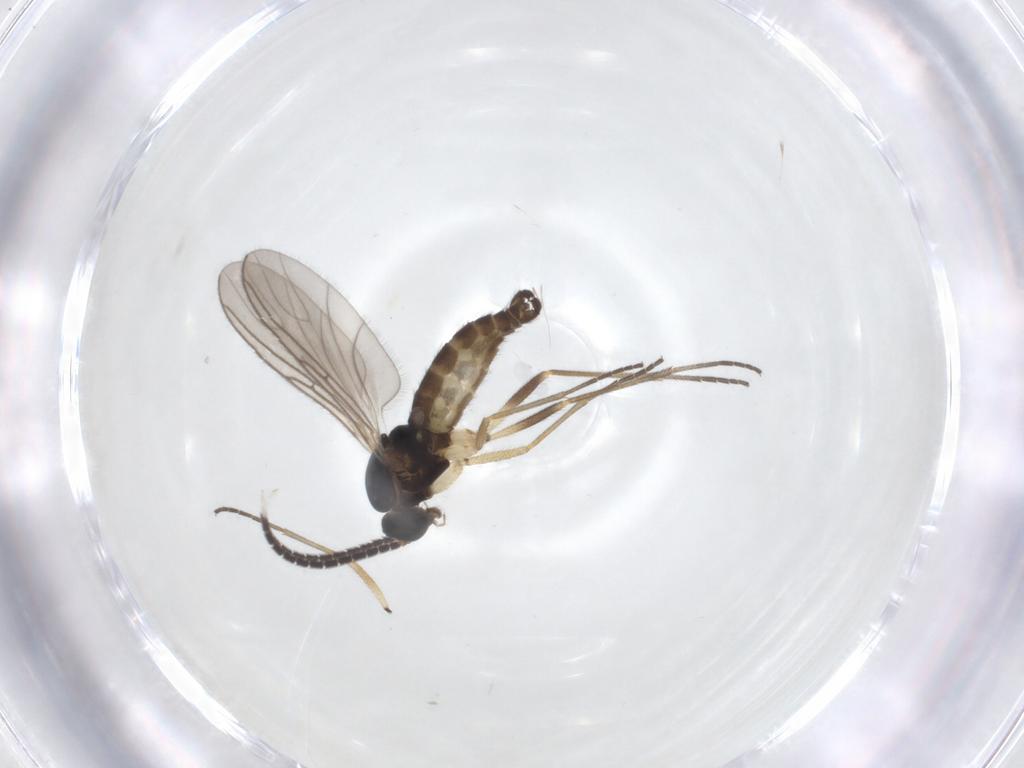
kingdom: Animalia
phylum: Arthropoda
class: Insecta
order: Diptera
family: Sciaridae
